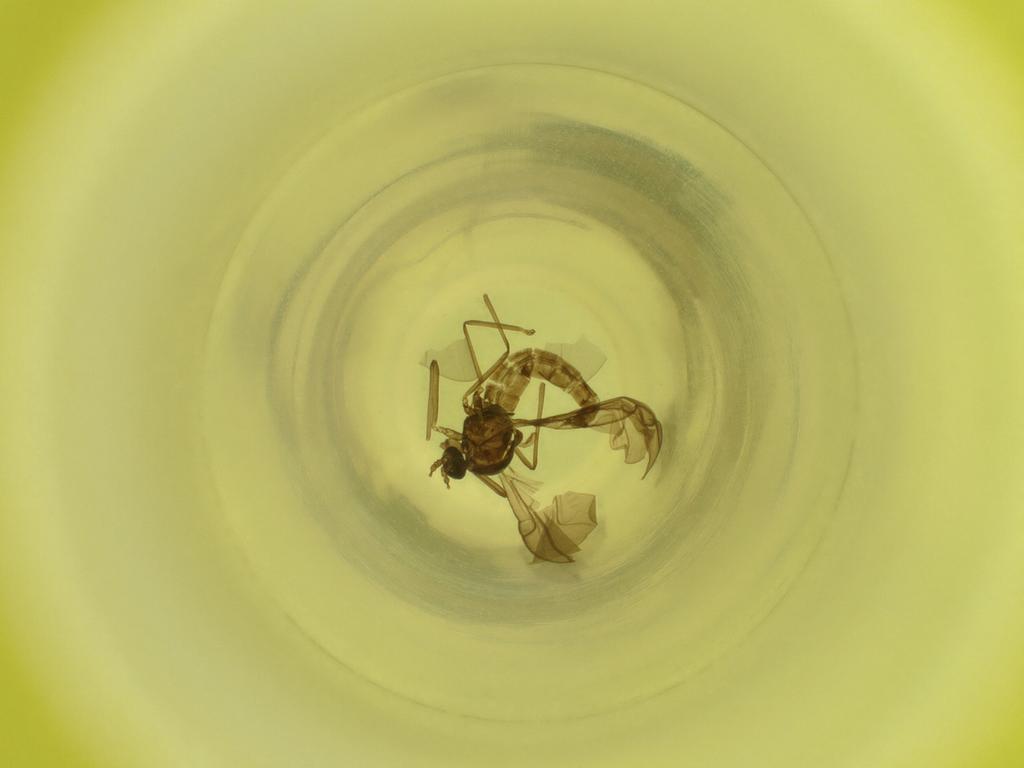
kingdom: Animalia
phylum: Arthropoda
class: Insecta
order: Diptera
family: Cecidomyiidae
